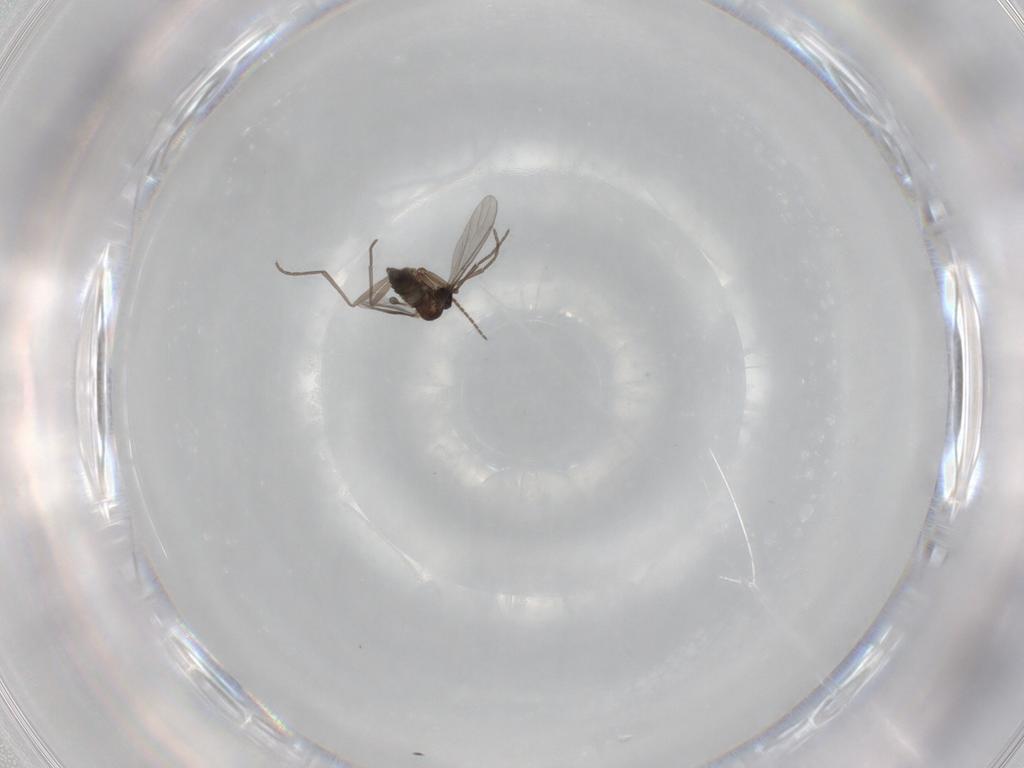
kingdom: Animalia
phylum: Arthropoda
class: Insecta
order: Diptera
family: Sciaridae
